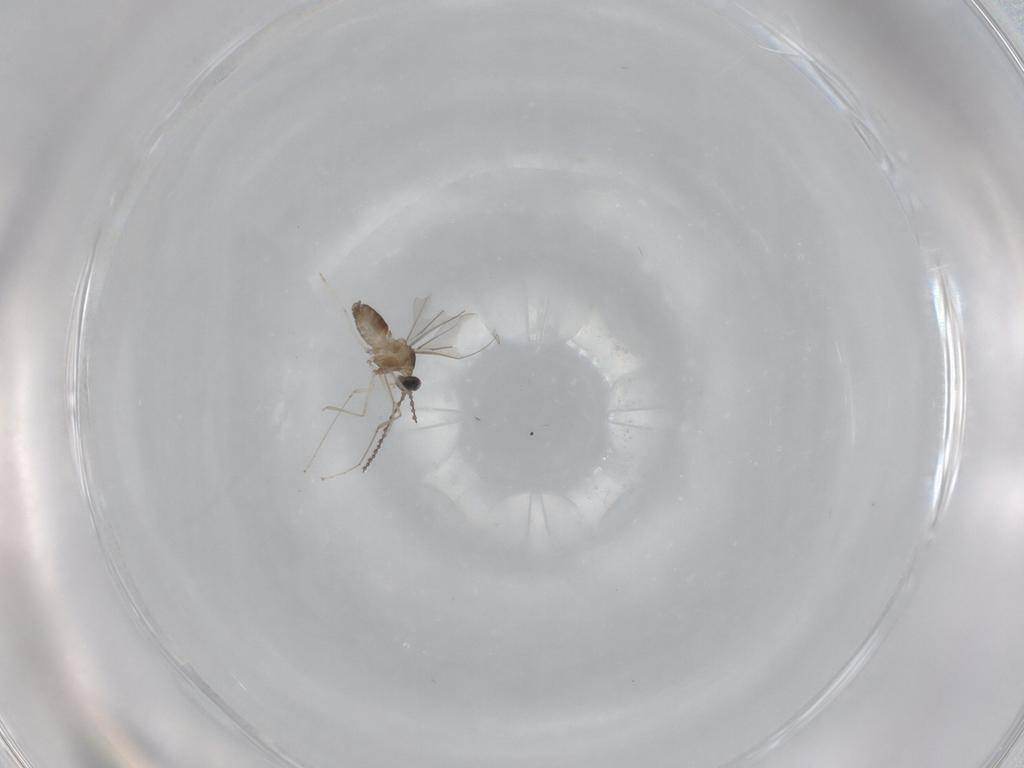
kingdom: Animalia
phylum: Arthropoda
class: Insecta
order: Diptera
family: Cecidomyiidae
